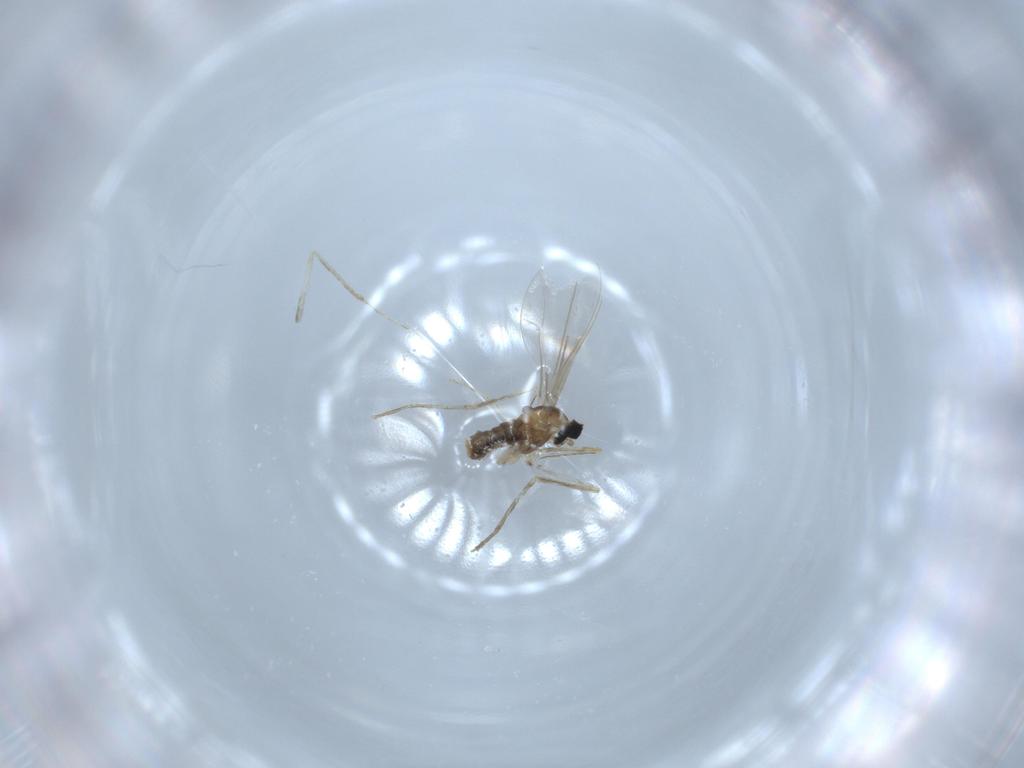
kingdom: Animalia
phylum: Arthropoda
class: Insecta
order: Diptera
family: Cecidomyiidae
